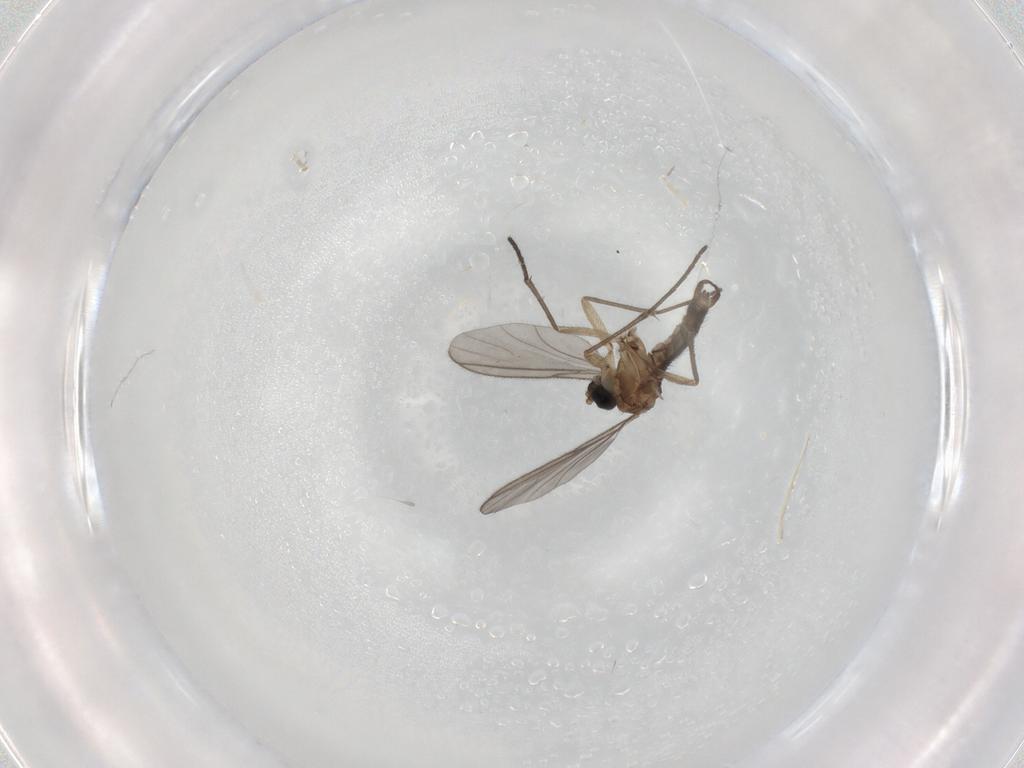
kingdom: Animalia
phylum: Arthropoda
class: Insecta
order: Diptera
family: Sciaridae
